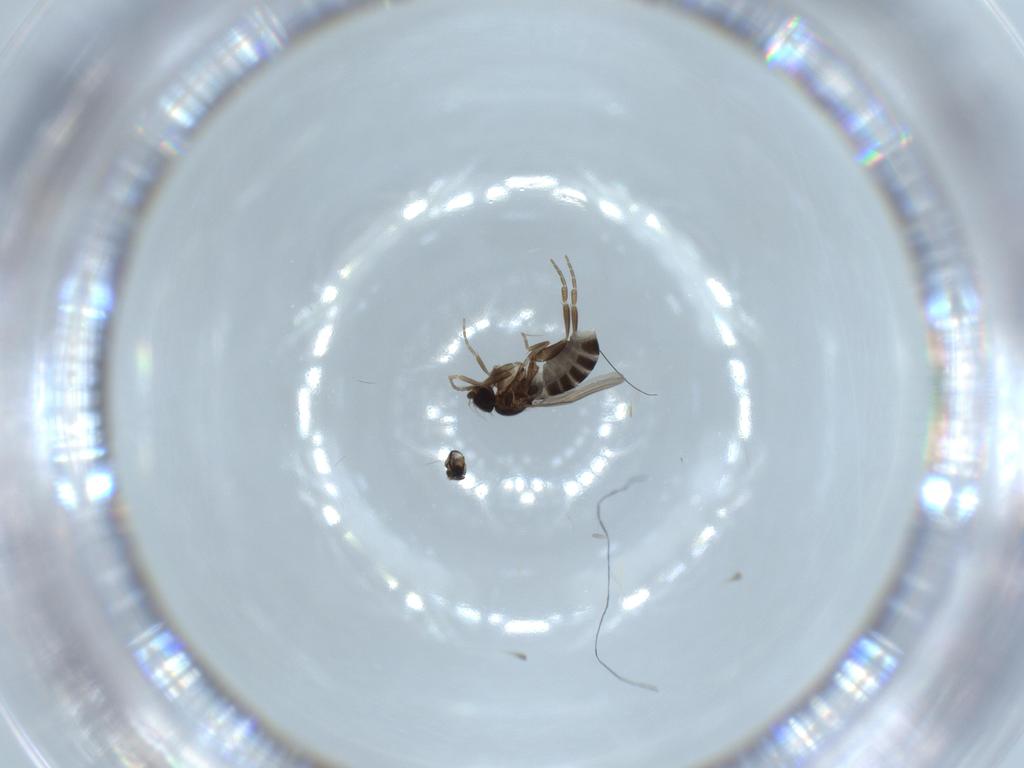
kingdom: Animalia
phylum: Arthropoda
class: Insecta
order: Diptera
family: Phoridae
